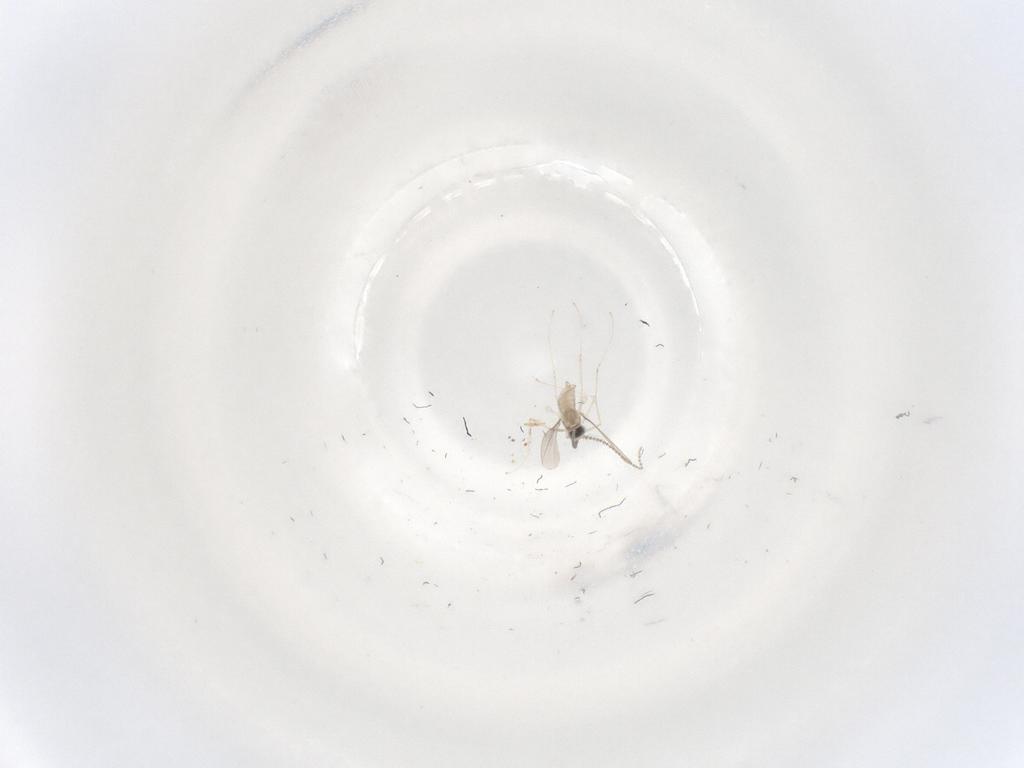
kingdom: Animalia
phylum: Arthropoda
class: Insecta
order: Diptera
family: Cecidomyiidae
